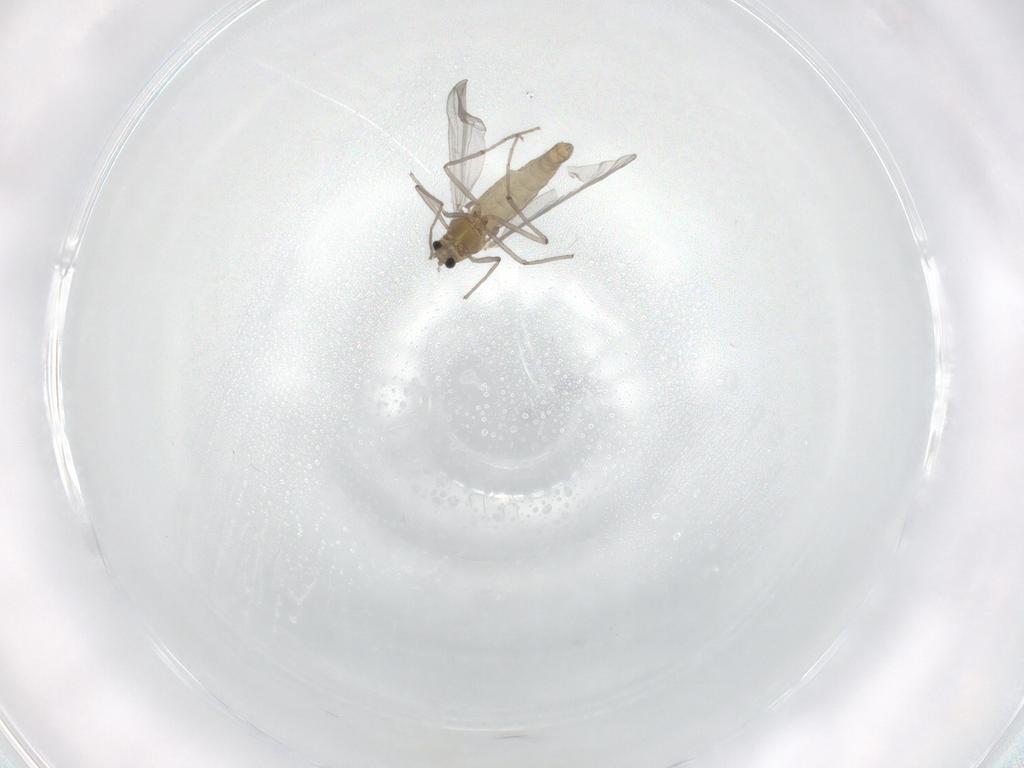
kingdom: Animalia
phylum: Arthropoda
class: Insecta
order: Diptera
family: Chironomidae
